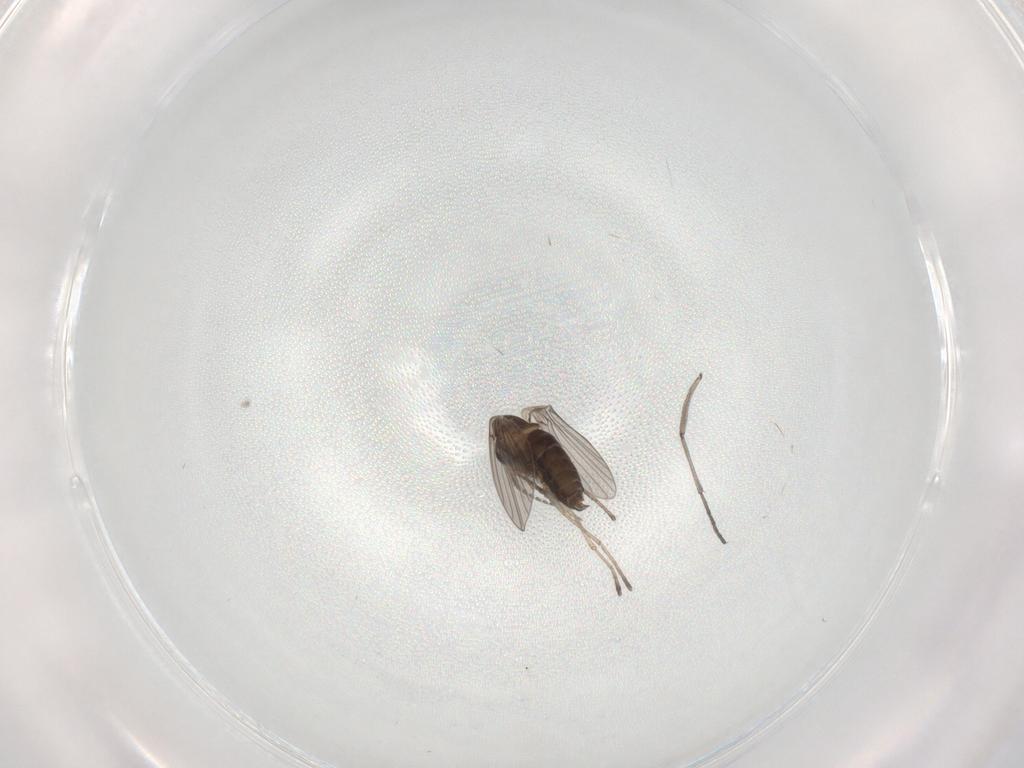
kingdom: Animalia
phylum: Arthropoda
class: Insecta
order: Diptera
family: Sciaridae
